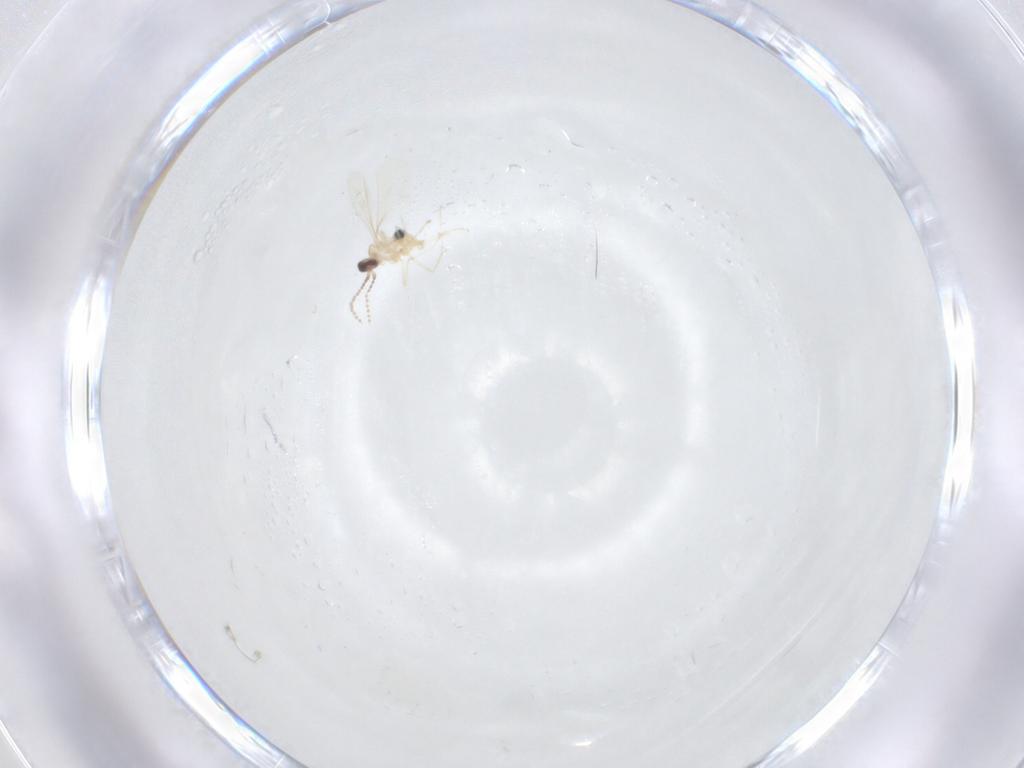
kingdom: Animalia
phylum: Arthropoda
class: Insecta
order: Diptera
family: Cecidomyiidae
